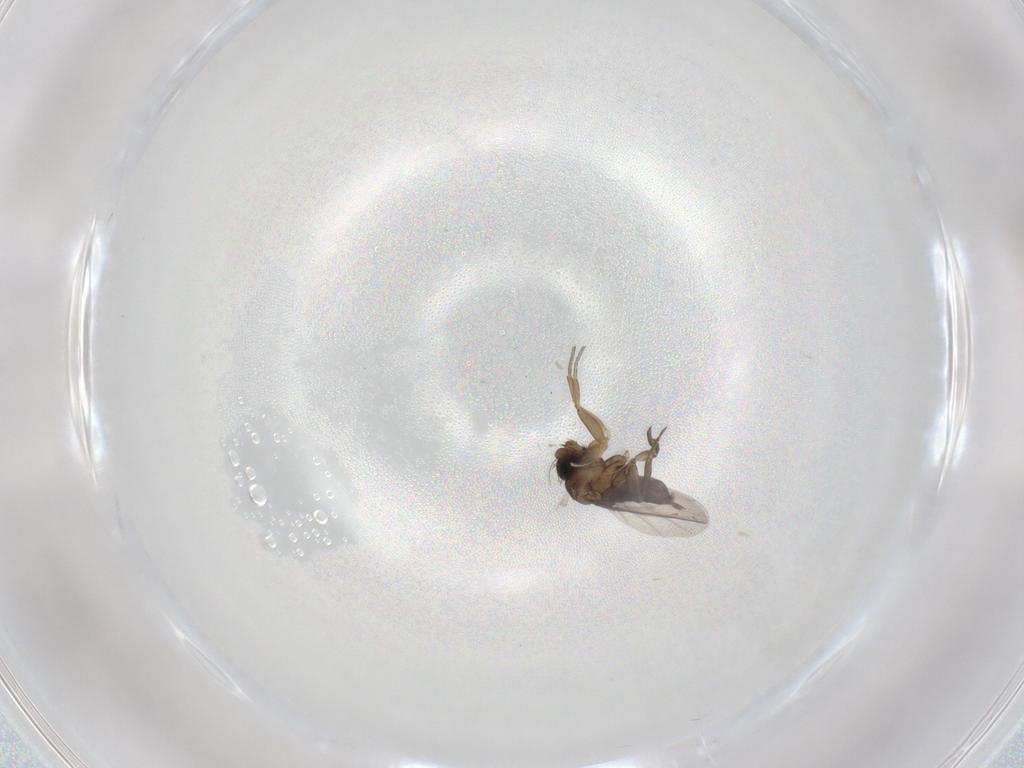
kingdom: Animalia
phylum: Arthropoda
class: Insecta
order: Diptera
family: Phoridae
